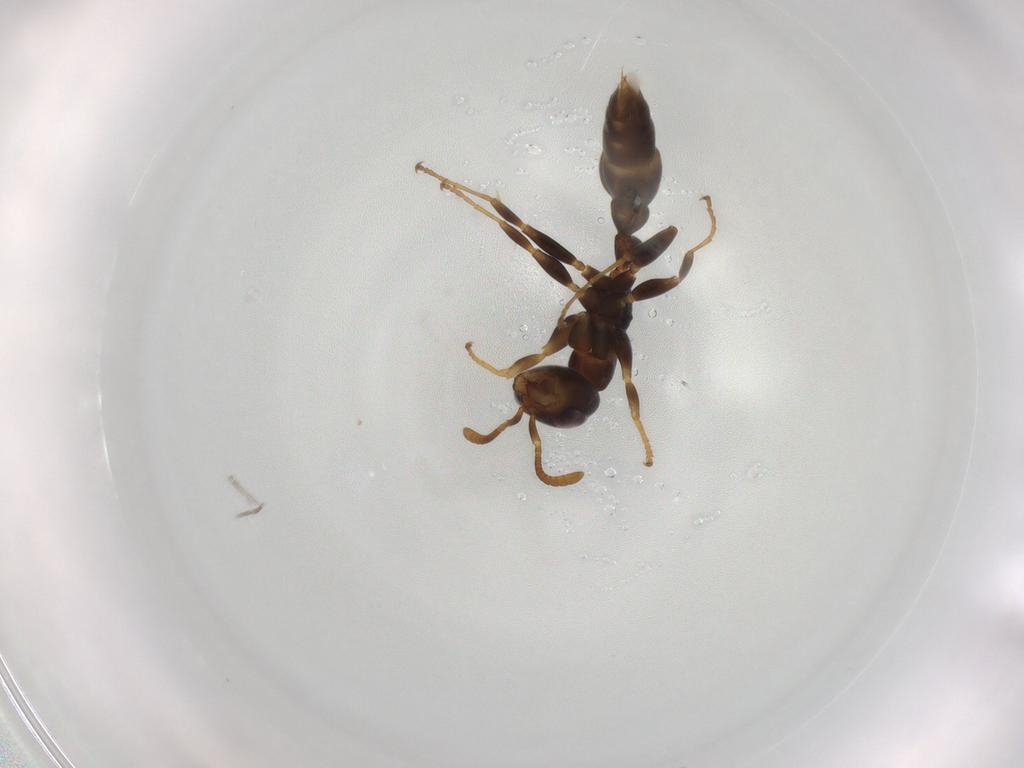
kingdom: Animalia
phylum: Arthropoda
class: Insecta
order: Hymenoptera
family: Formicidae
